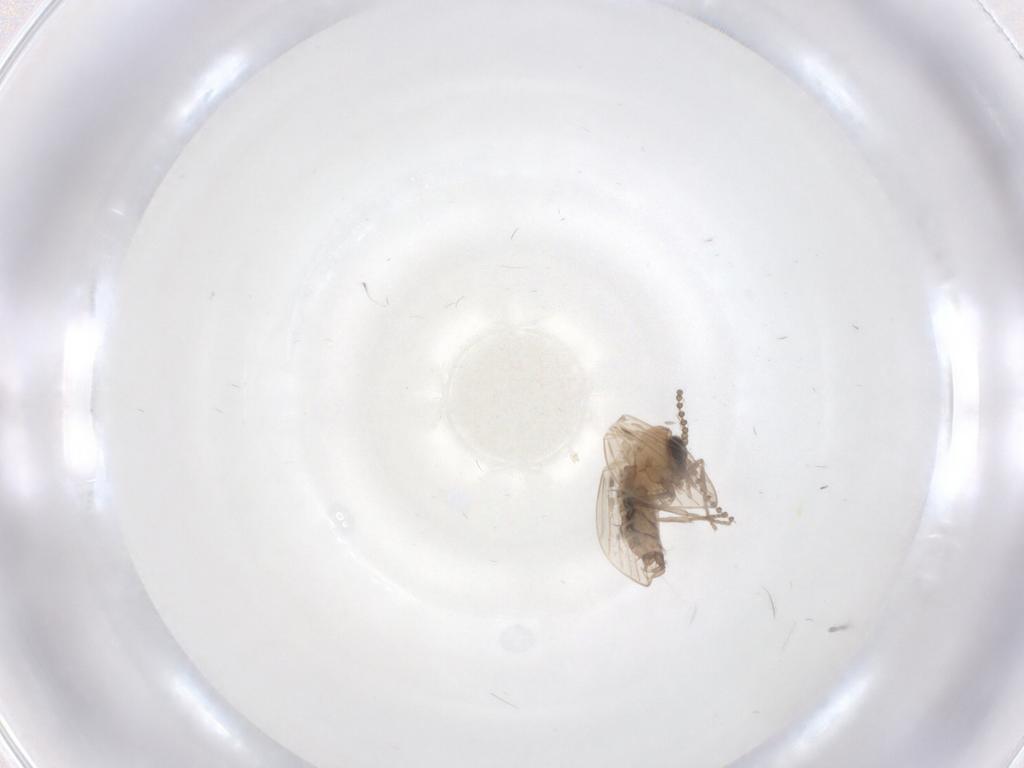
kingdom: Animalia
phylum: Arthropoda
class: Insecta
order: Diptera
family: Psychodidae
